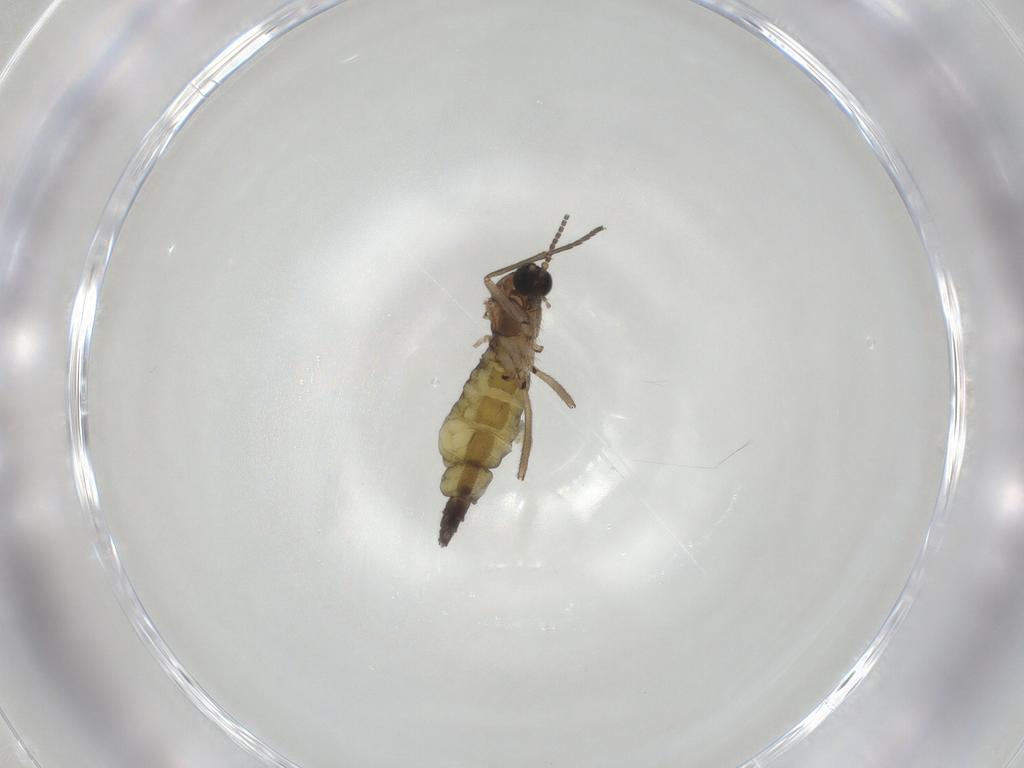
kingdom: Animalia
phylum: Arthropoda
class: Insecta
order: Diptera
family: Sciaridae
